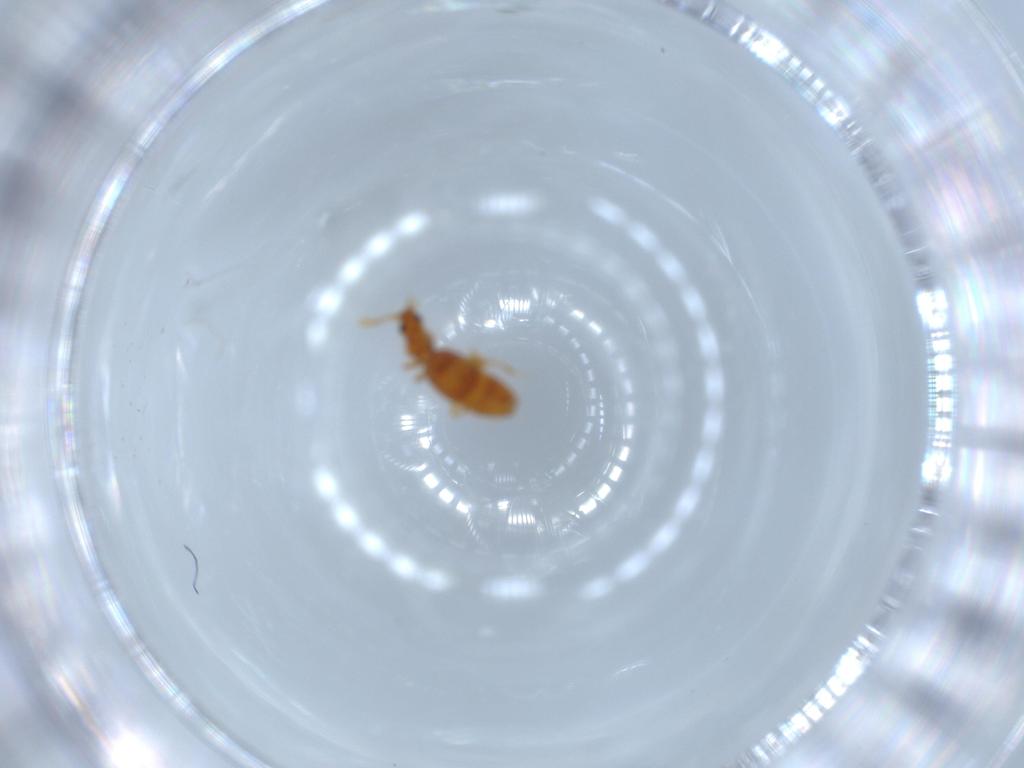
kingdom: Animalia
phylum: Arthropoda
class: Insecta
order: Coleoptera
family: Staphylinidae
